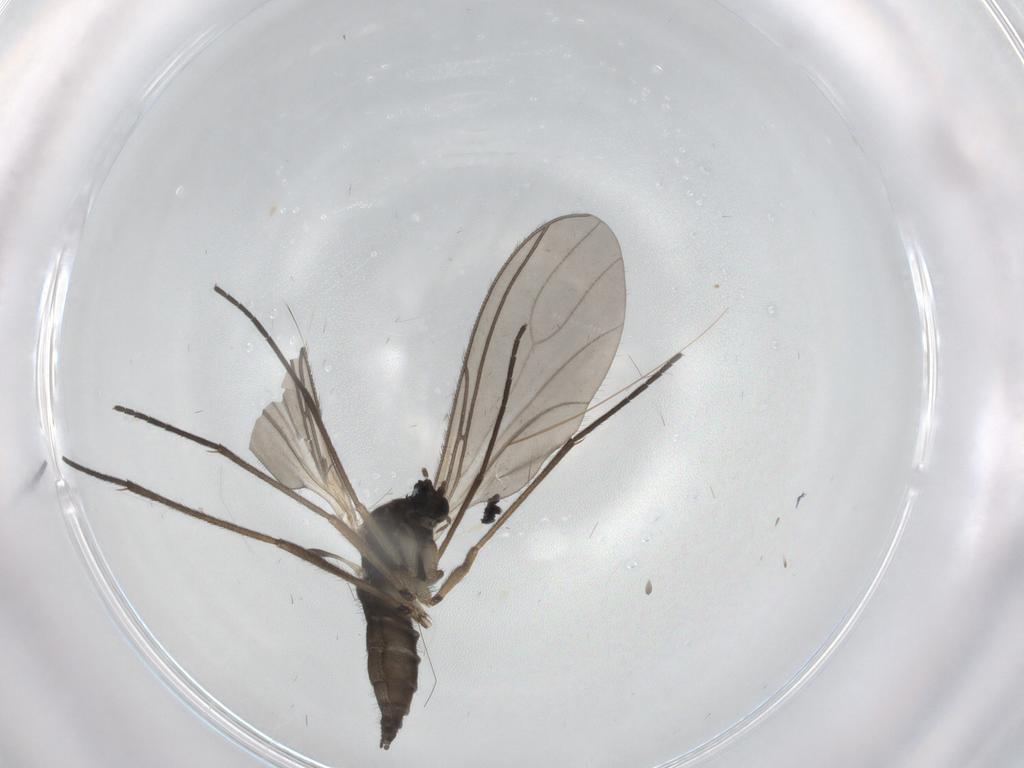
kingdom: Animalia
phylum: Arthropoda
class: Insecta
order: Diptera
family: Sciaridae
